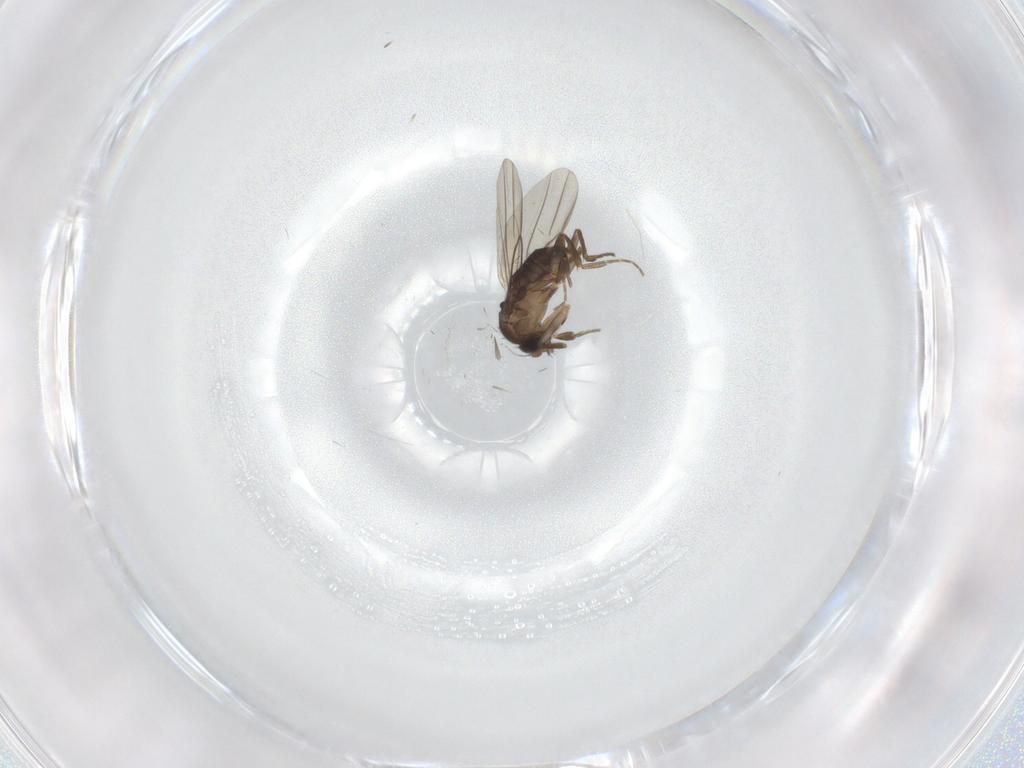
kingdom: Animalia
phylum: Arthropoda
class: Insecta
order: Diptera
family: Phoridae
